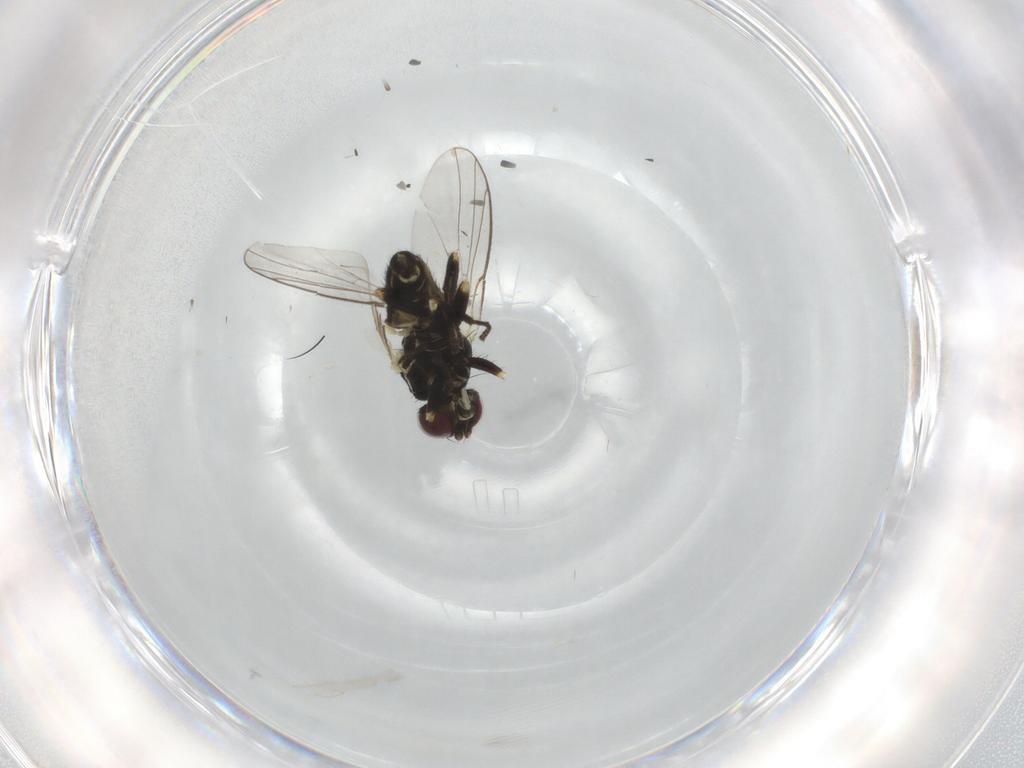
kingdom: Animalia
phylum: Arthropoda
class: Insecta
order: Diptera
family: Agromyzidae
